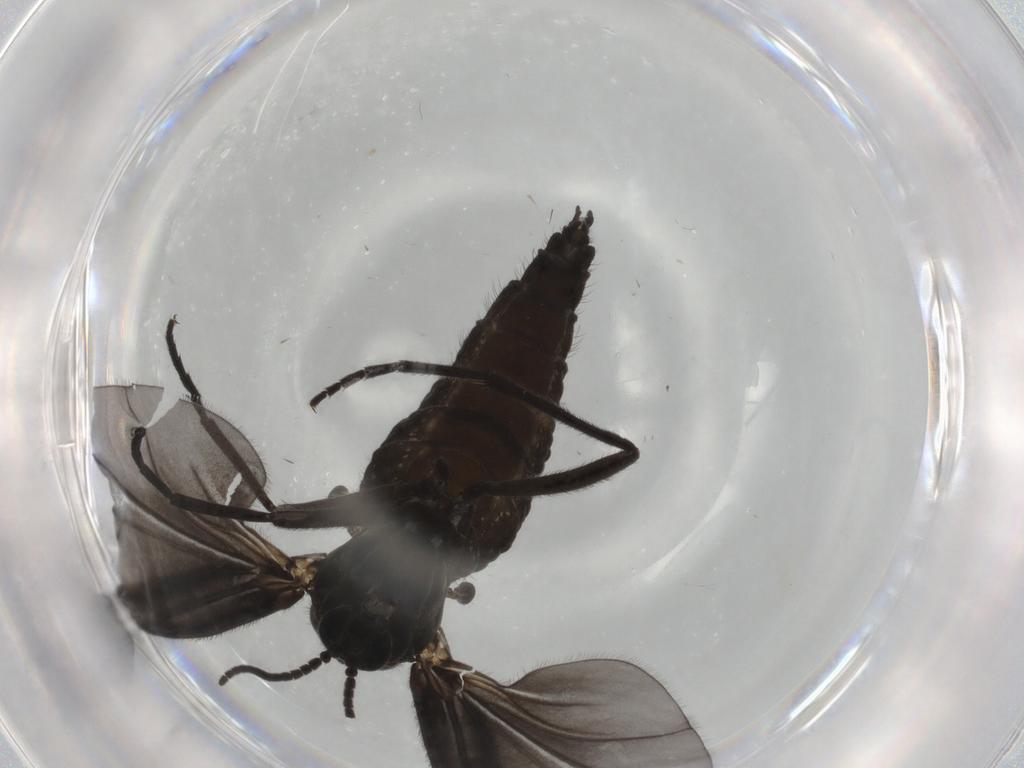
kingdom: Animalia
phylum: Arthropoda
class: Insecta
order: Diptera
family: Sciaridae
